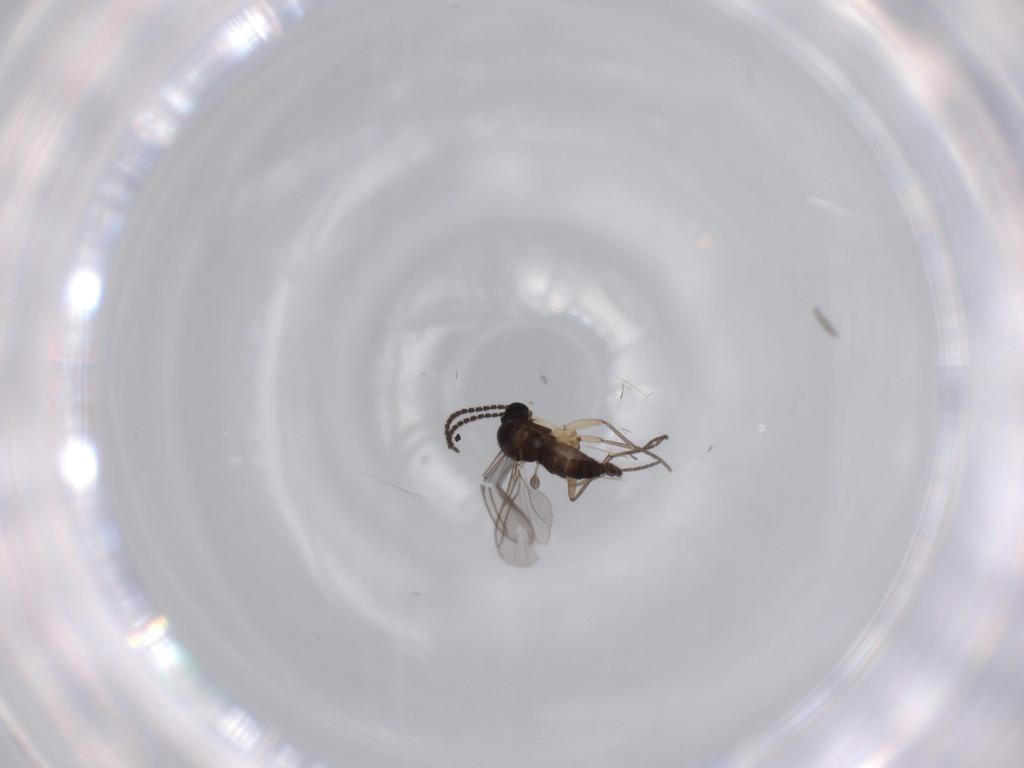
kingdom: Animalia
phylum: Arthropoda
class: Insecta
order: Diptera
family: Sciaridae
